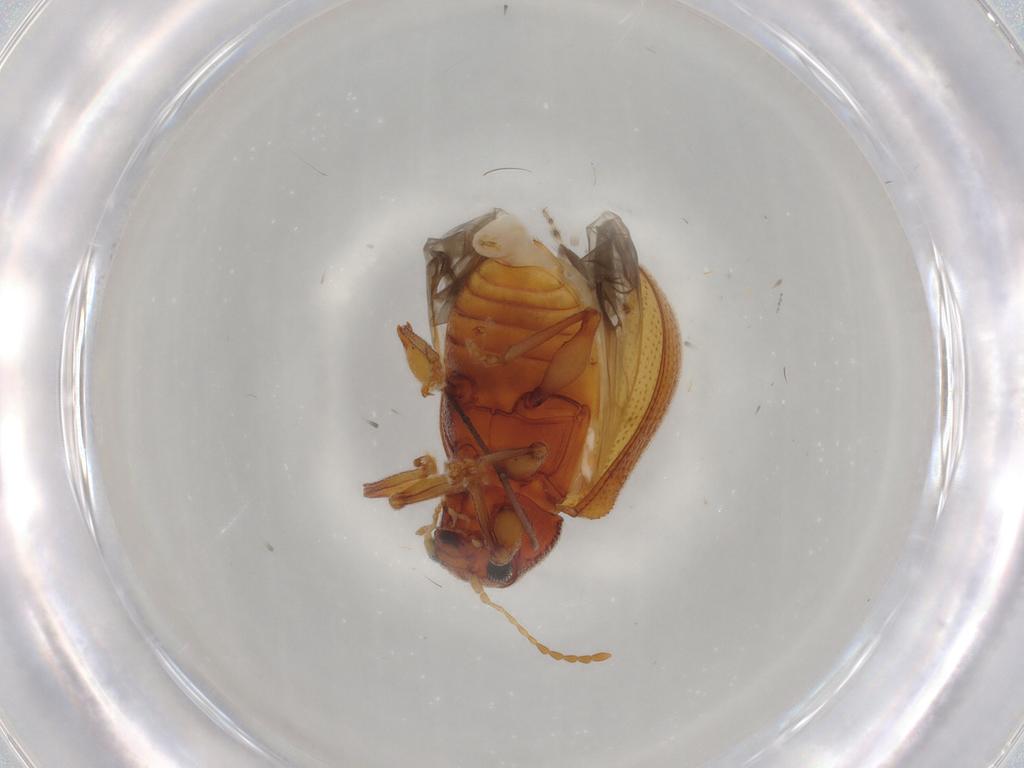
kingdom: Animalia
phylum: Arthropoda
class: Insecta
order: Coleoptera
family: Chrysomelidae
